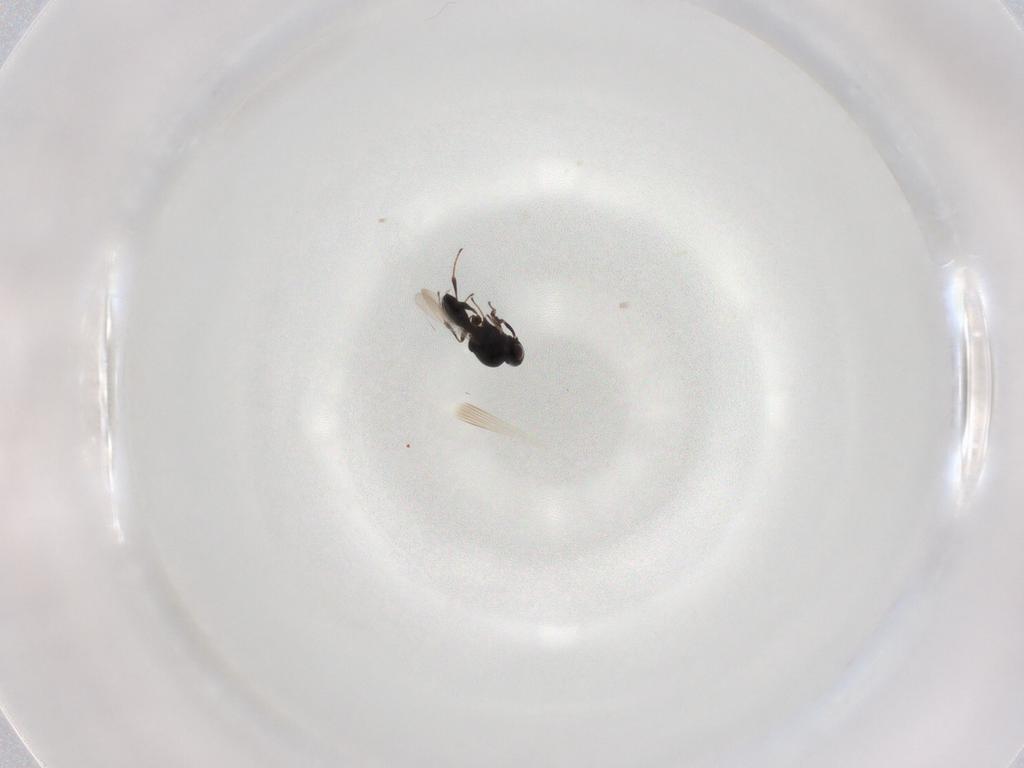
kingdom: Animalia
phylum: Arthropoda
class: Insecta
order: Hymenoptera
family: Platygastridae
